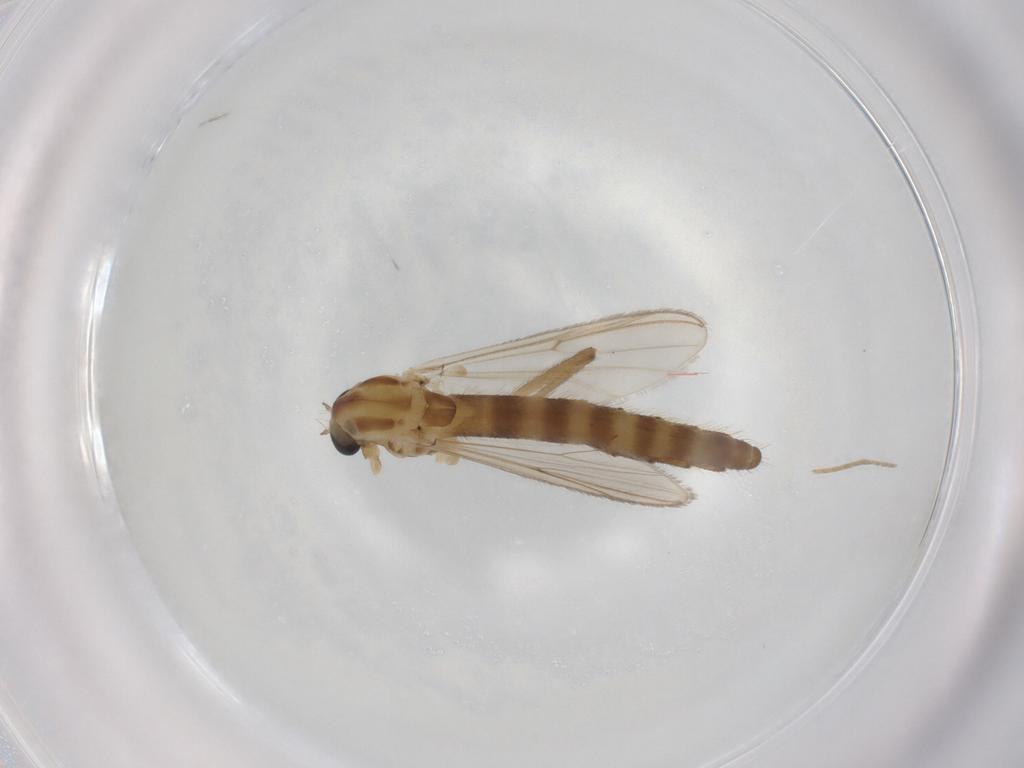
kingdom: Animalia
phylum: Arthropoda
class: Insecta
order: Diptera
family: Chironomidae
